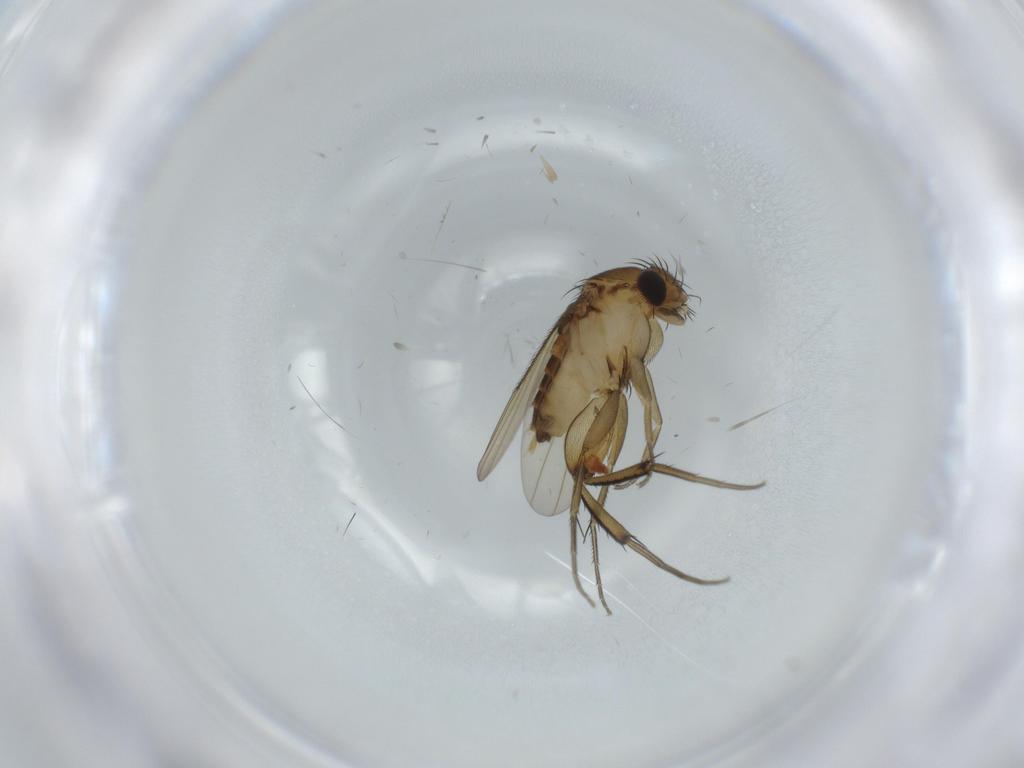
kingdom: Animalia
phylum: Arthropoda
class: Insecta
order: Diptera
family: Phoridae
